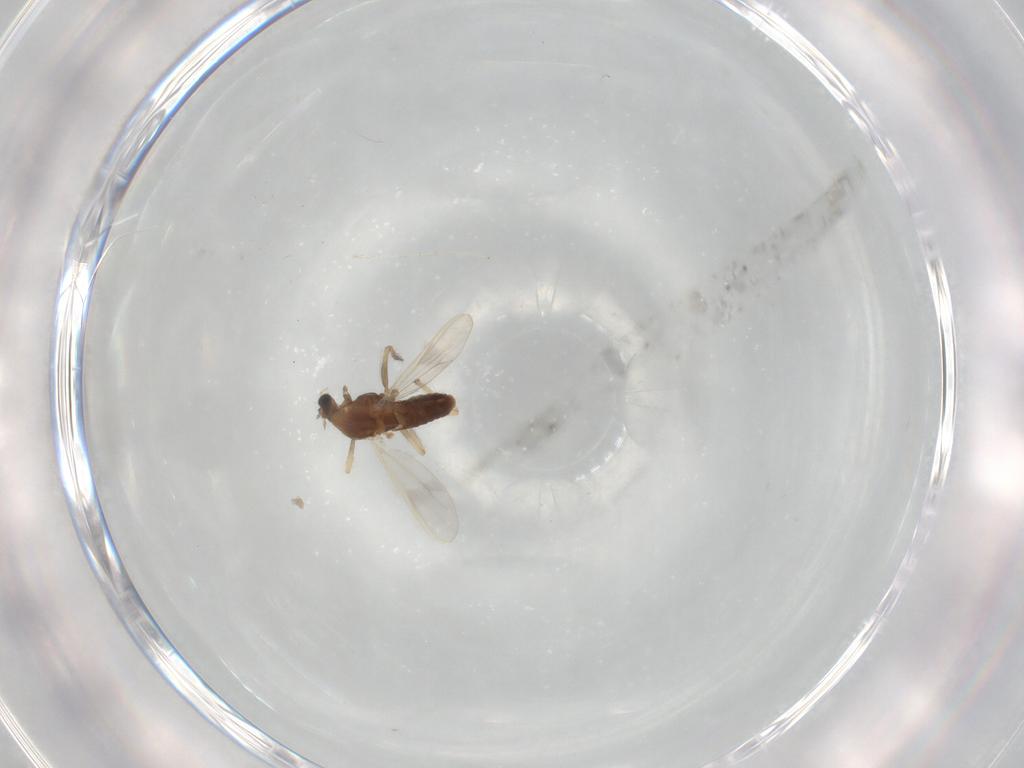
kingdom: Animalia
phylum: Arthropoda
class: Insecta
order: Diptera
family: Chironomidae
